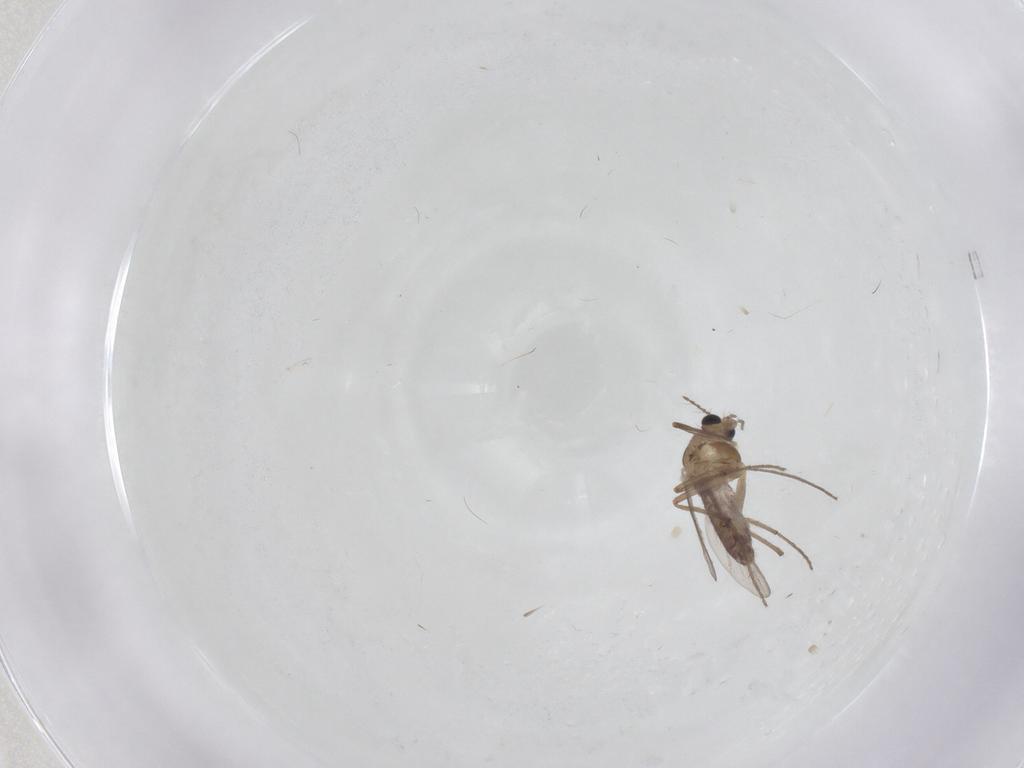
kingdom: Animalia
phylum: Arthropoda
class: Insecta
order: Diptera
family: Chironomidae
